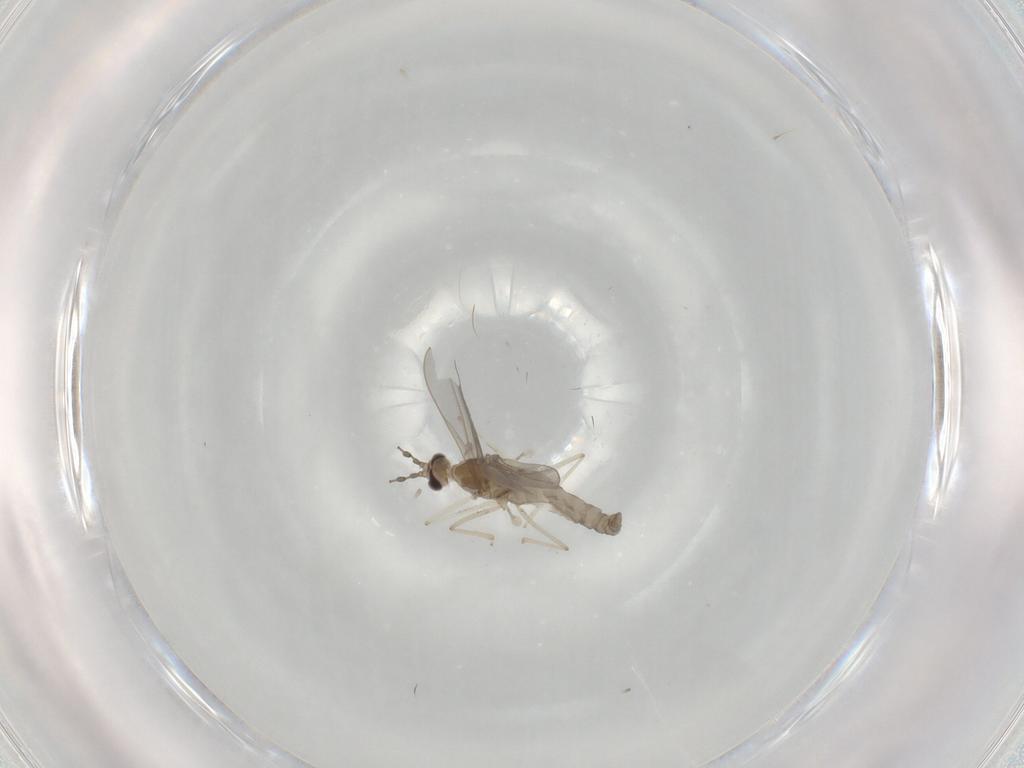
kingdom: Animalia
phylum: Arthropoda
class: Insecta
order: Diptera
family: Cecidomyiidae
